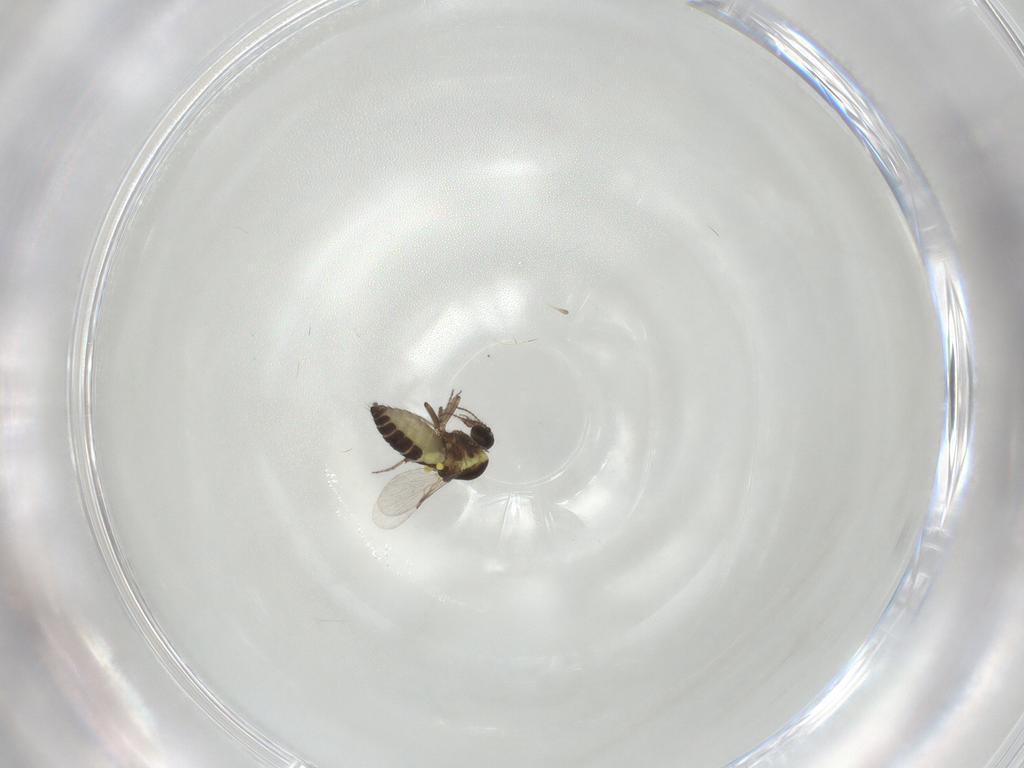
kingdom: Animalia
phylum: Arthropoda
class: Insecta
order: Diptera
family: Ceratopogonidae
